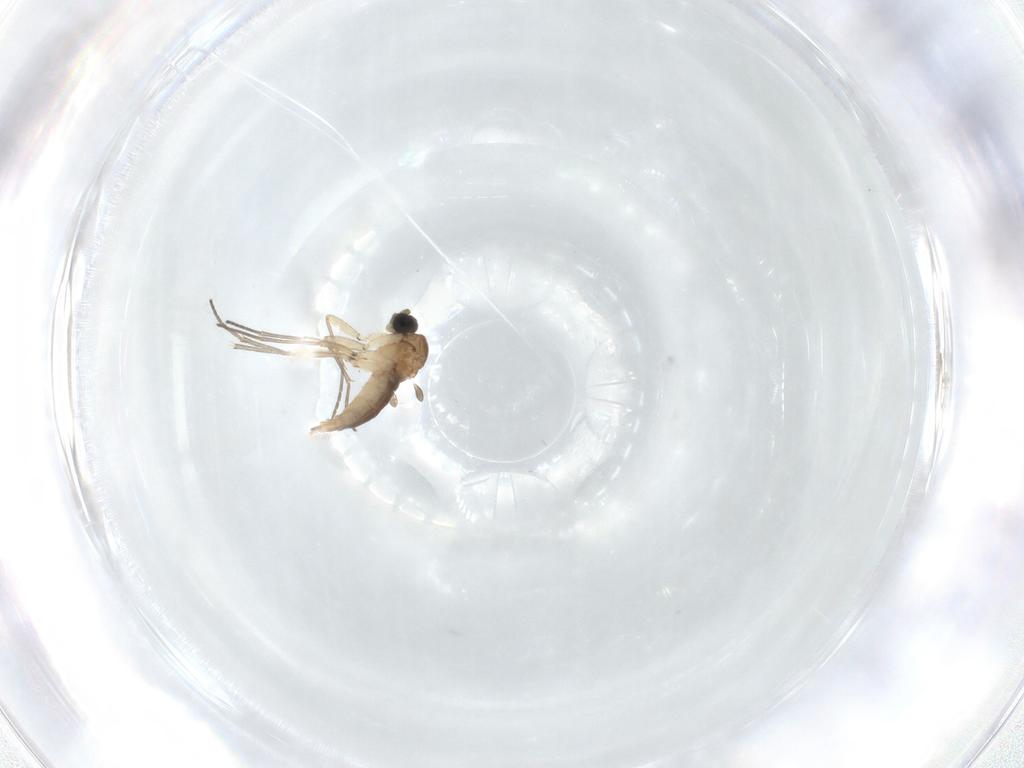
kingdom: Animalia
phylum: Arthropoda
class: Insecta
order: Diptera
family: Sciaridae
